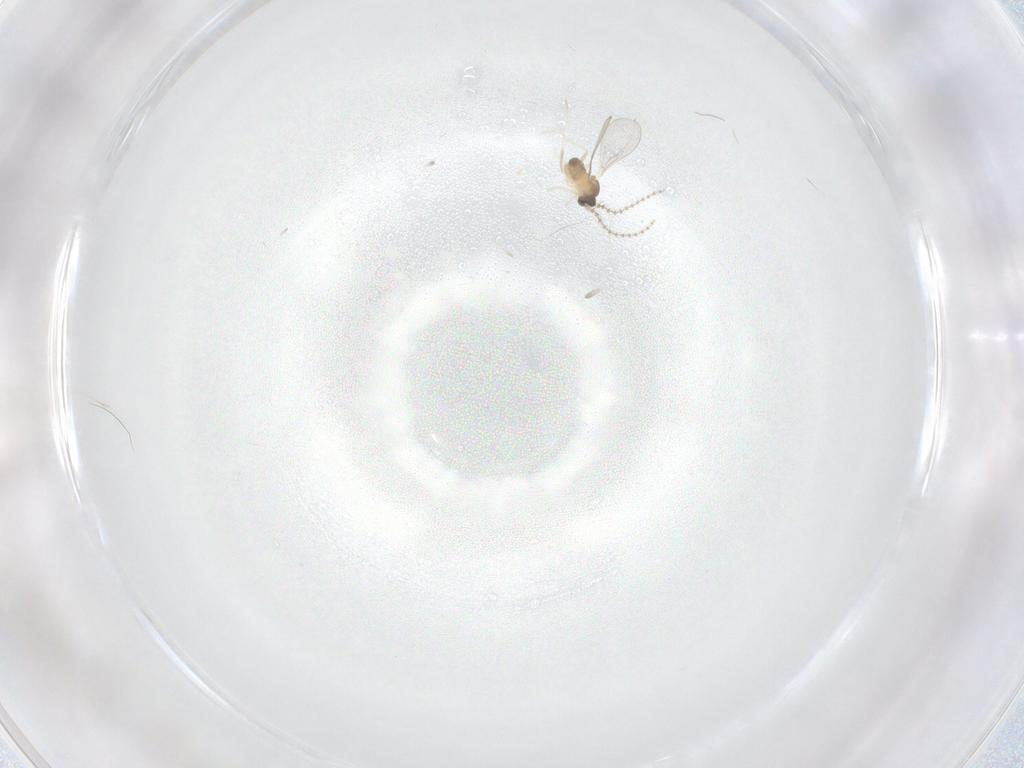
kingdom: Animalia
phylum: Arthropoda
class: Insecta
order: Diptera
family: Cecidomyiidae
